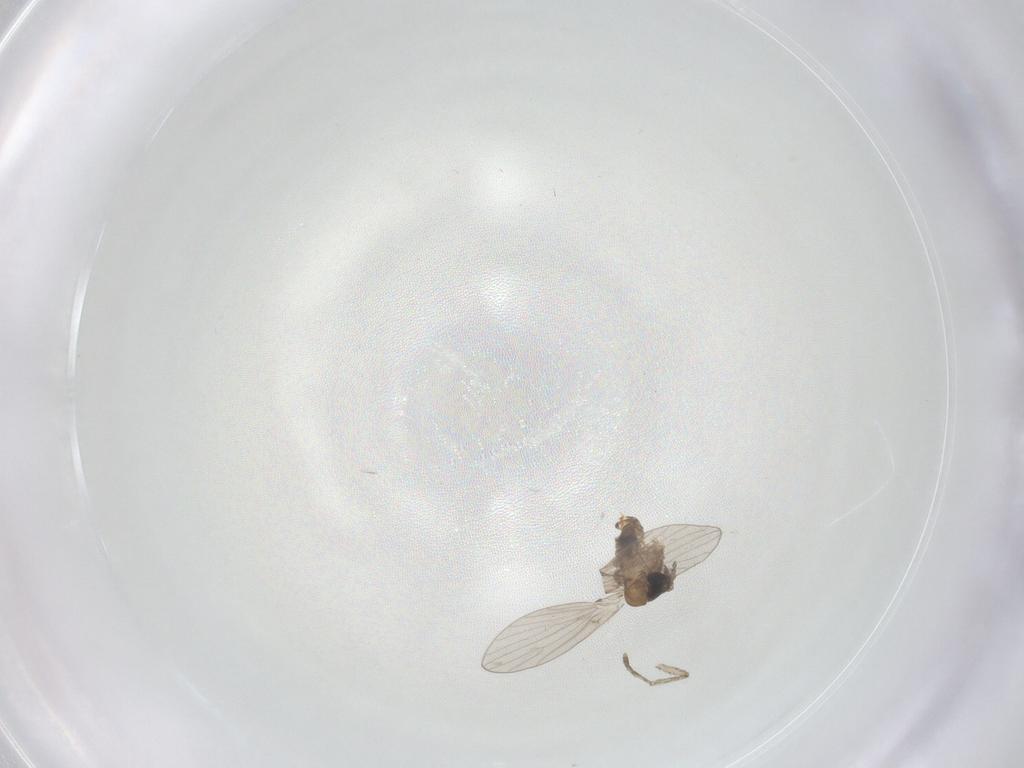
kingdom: Animalia
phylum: Arthropoda
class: Insecta
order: Diptera
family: Psychodidae
